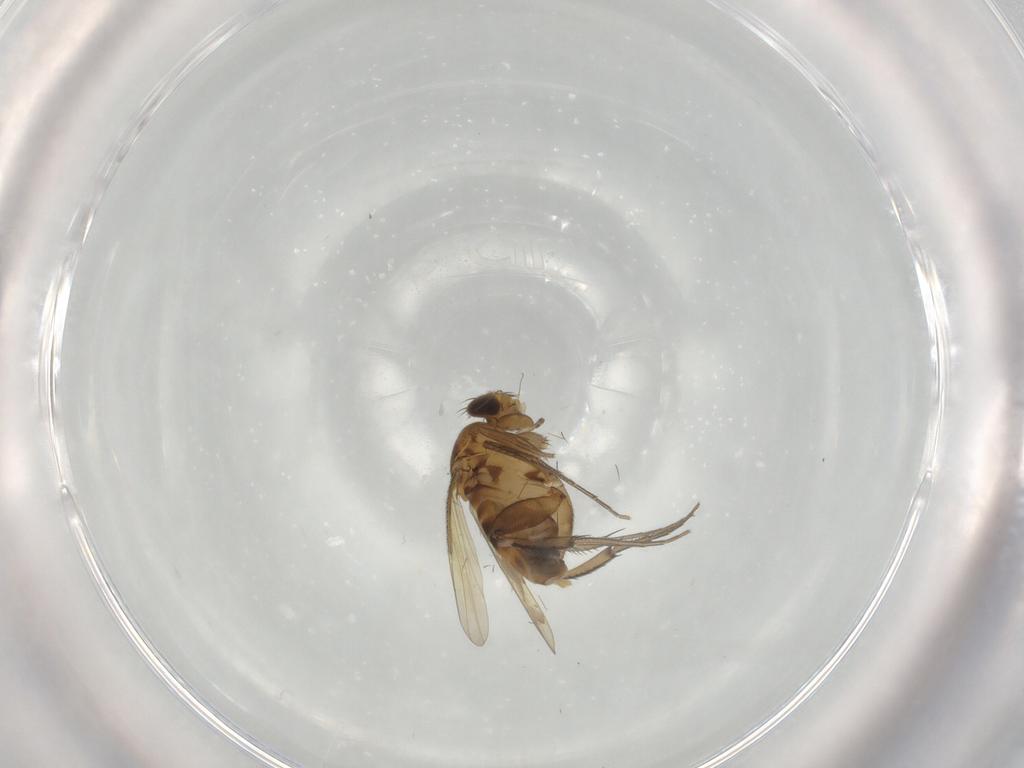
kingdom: Animalia
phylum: Arthropoda
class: Insecta
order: Diptera
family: Phoridae
